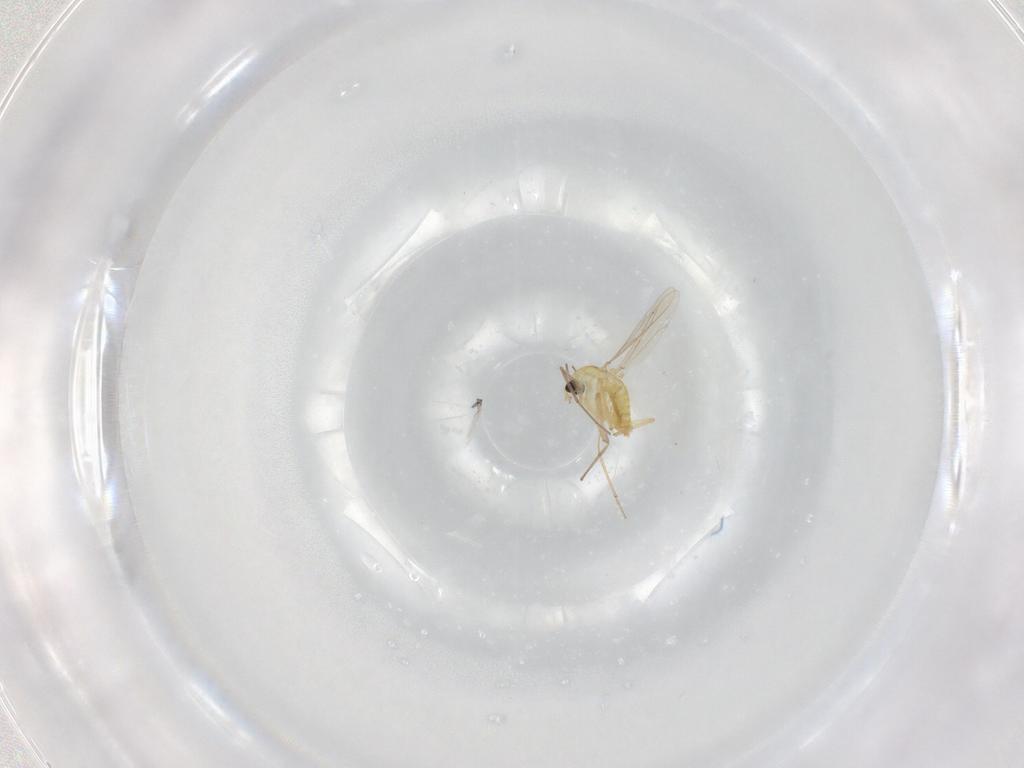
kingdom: Animalia
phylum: Arthropoda
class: Insecta
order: Diptera
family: Chironomidae
